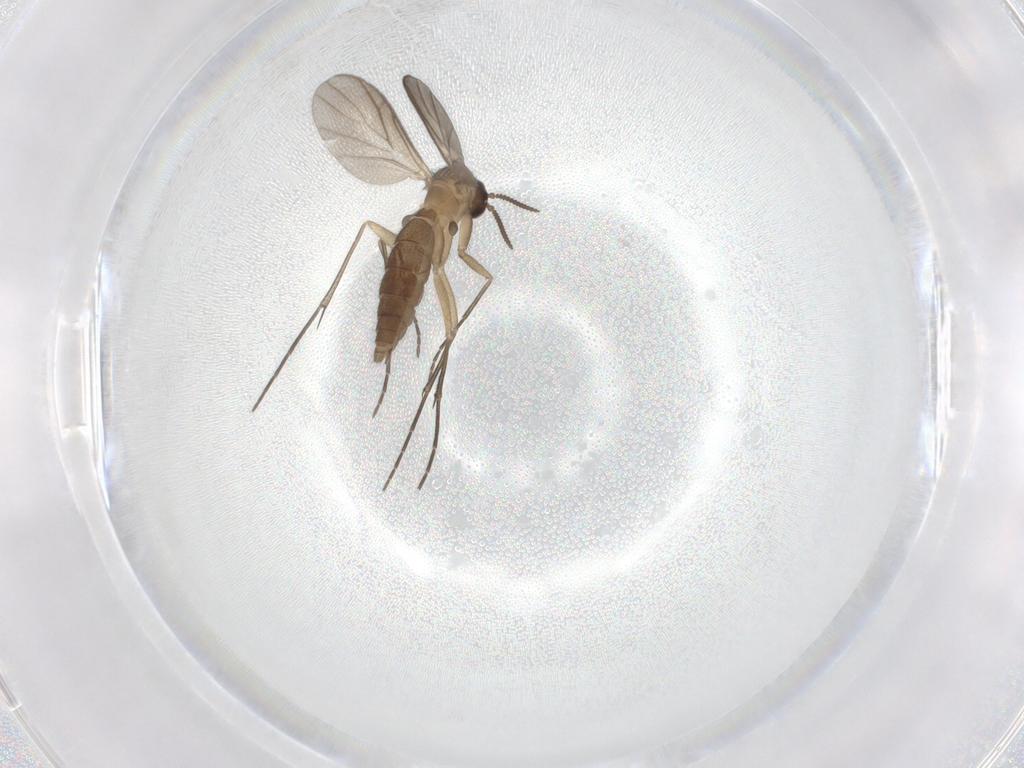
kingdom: Animalia
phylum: Arthropoda
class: Insecta
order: Diptera
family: Keroplatidae
